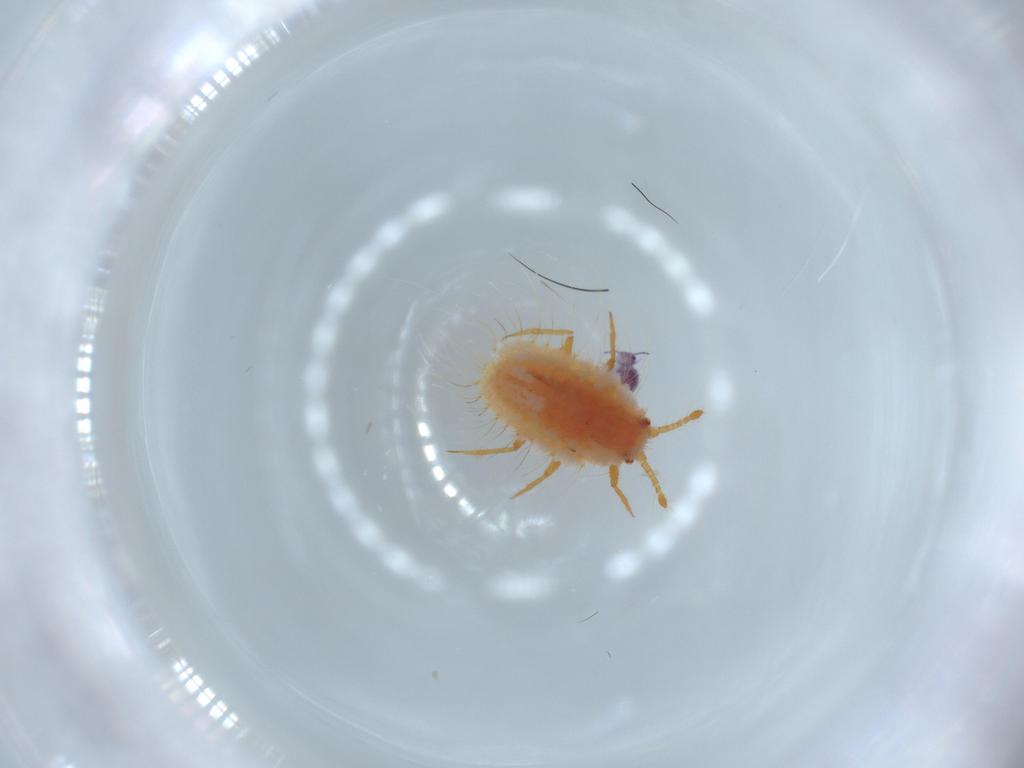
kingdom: Animalia
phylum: Arthropoda
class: Collembola
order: Symphypleona
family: Sminthurididae
